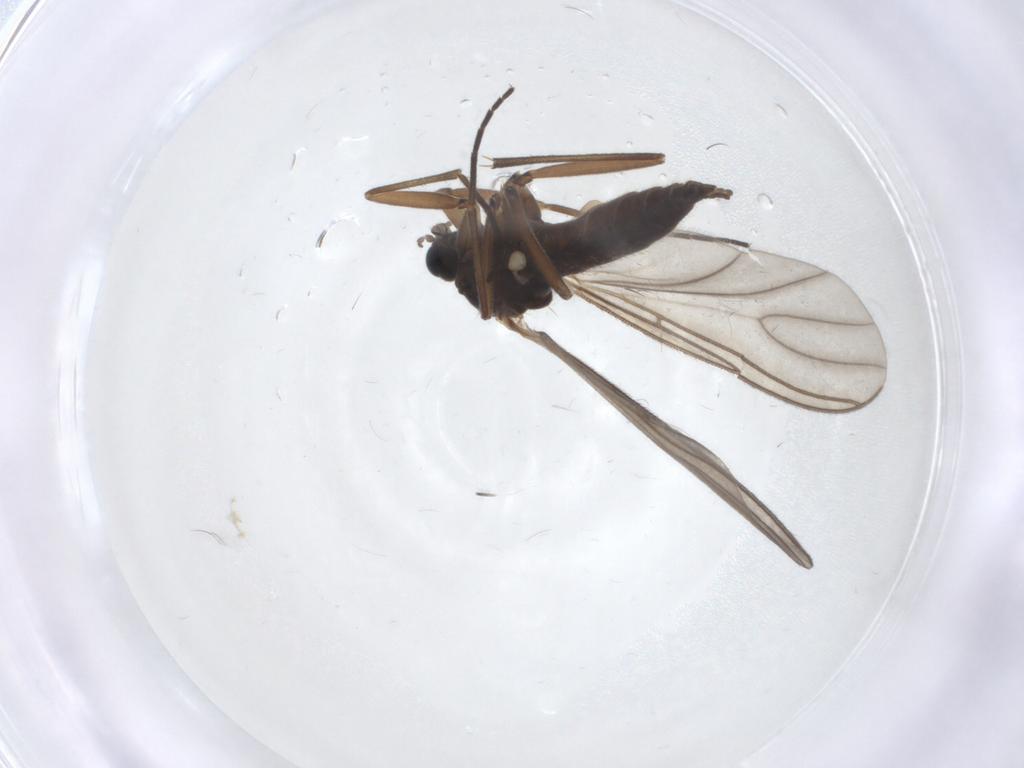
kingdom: Animalia
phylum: Arthropoda
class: Insecta
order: Diptera
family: Sciaridae
